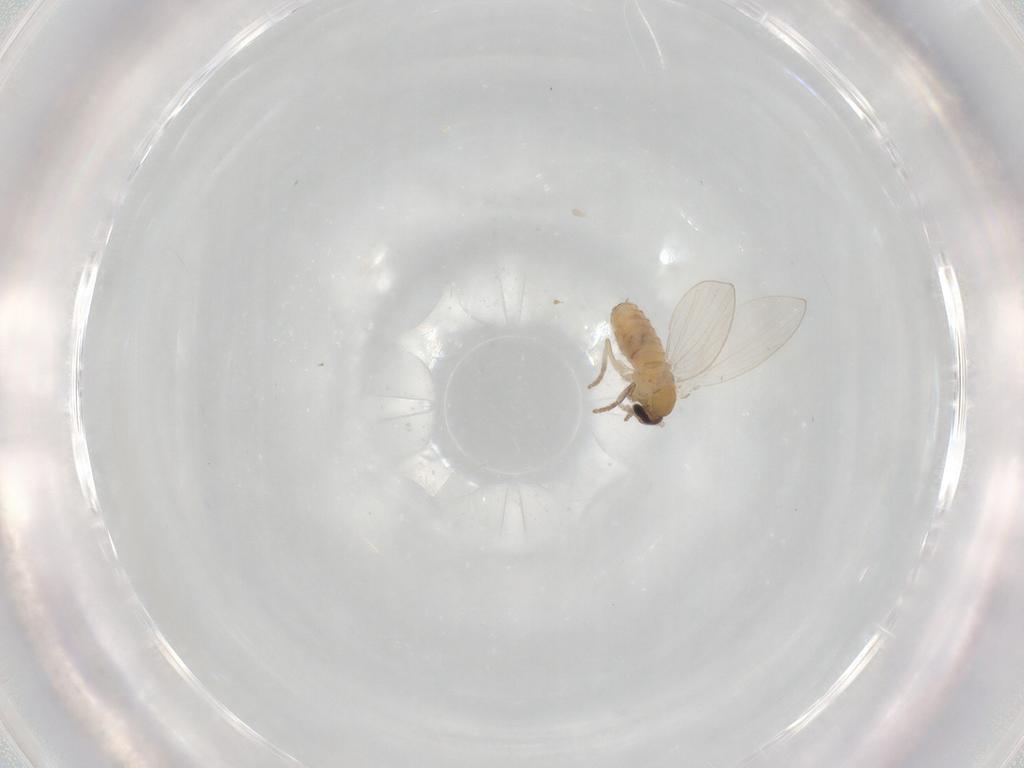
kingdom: Animalia
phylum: Arthropoda
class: Insecta
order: Diptera
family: Psychodidae
